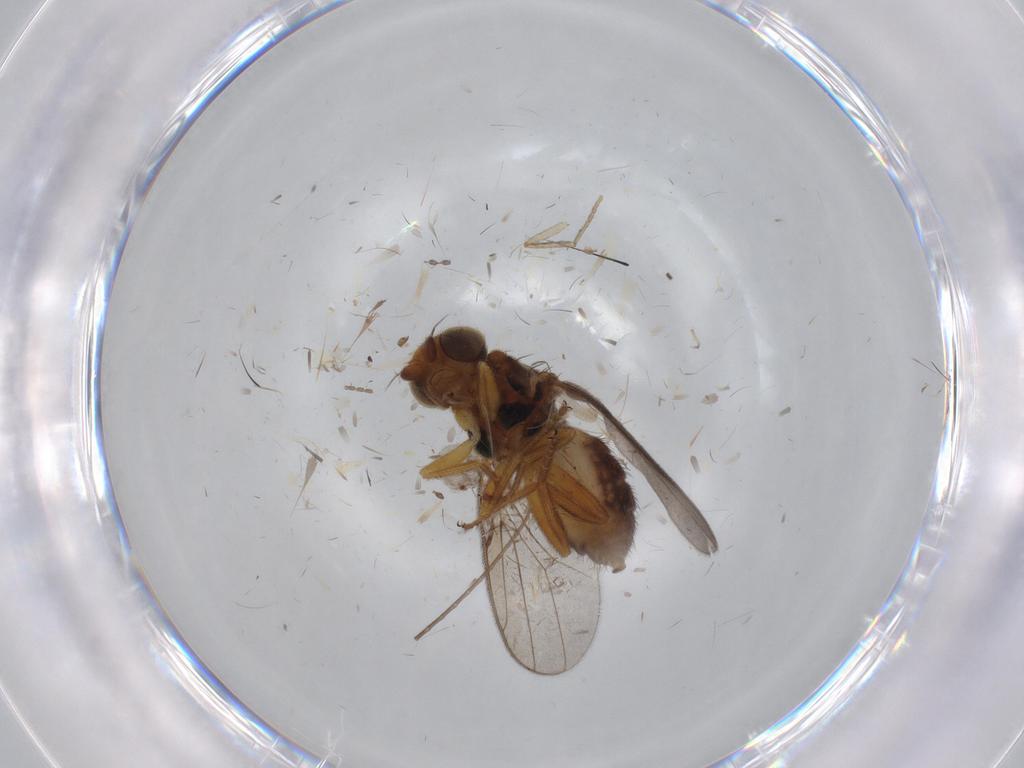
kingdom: Animalia
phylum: Arthropoda
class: Insecta
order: Diptera
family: Chloropidae
